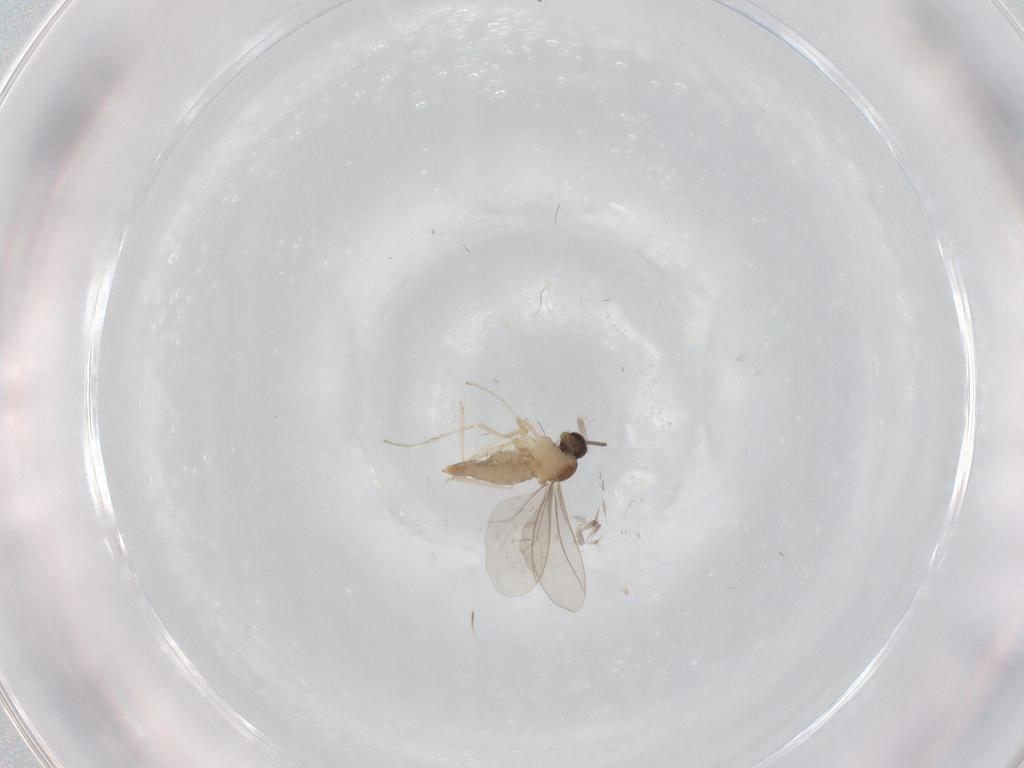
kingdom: Animalia
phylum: Arthropoda
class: Insecta
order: Diptera
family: Cecidomyiidae
